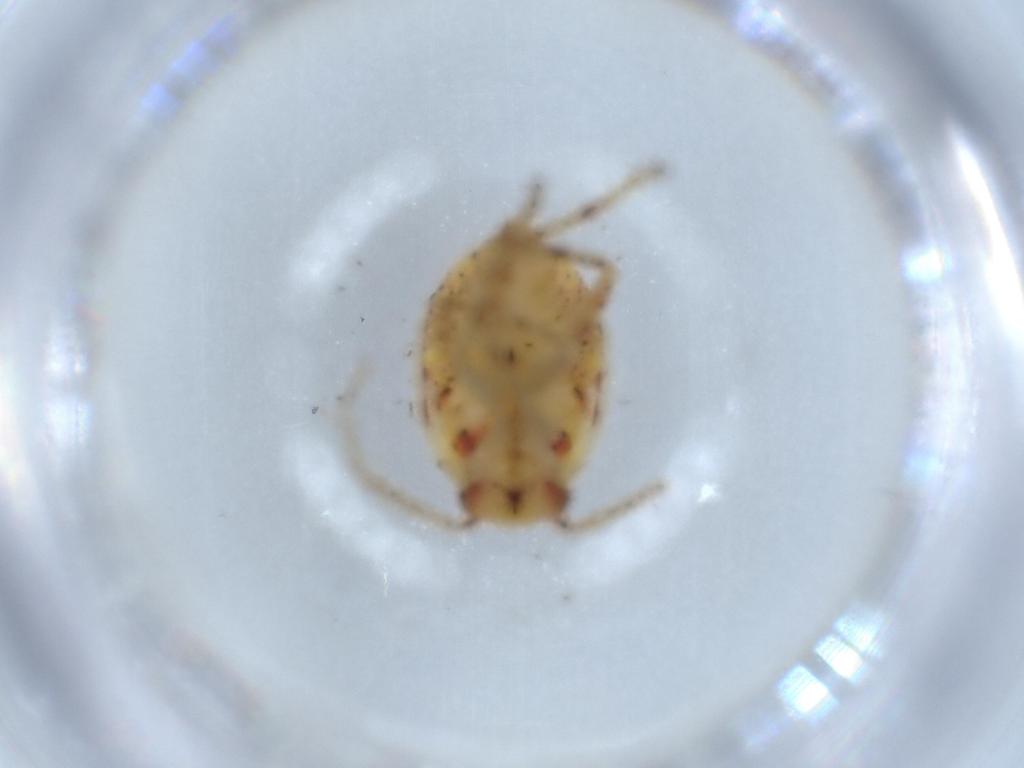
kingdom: Animalia
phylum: Arthropoda
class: Insecta
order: Hemiptera
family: Miridae
